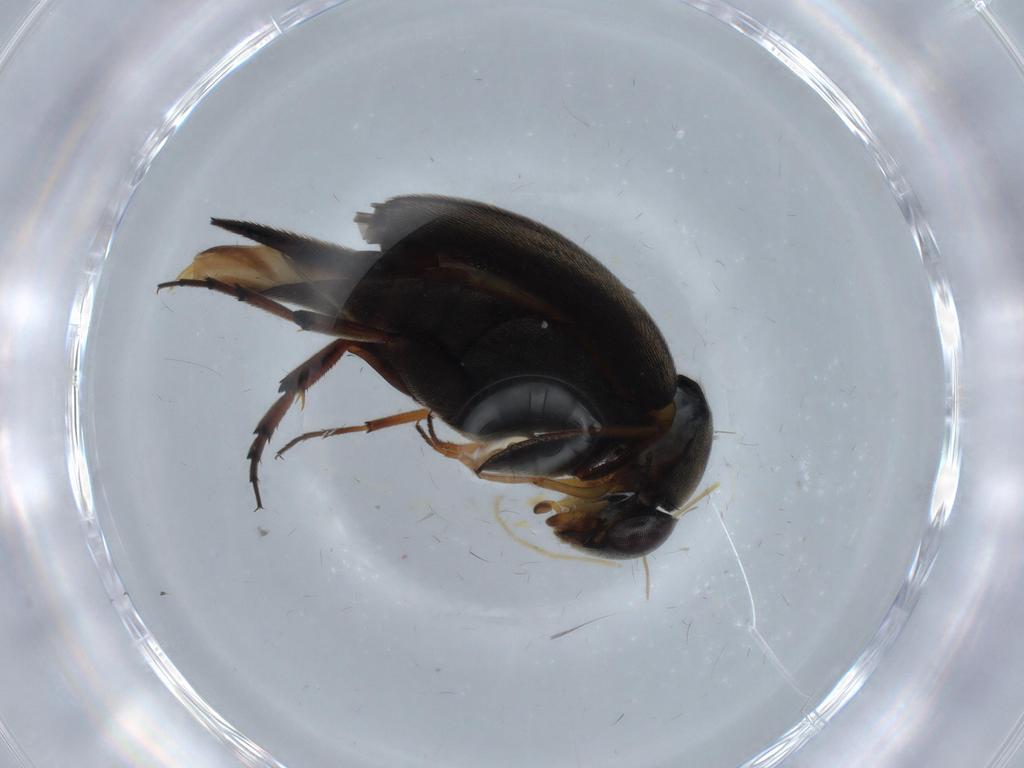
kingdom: Animalia
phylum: Arthropoda
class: Insecta
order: Coleoptera
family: Mordellidae
